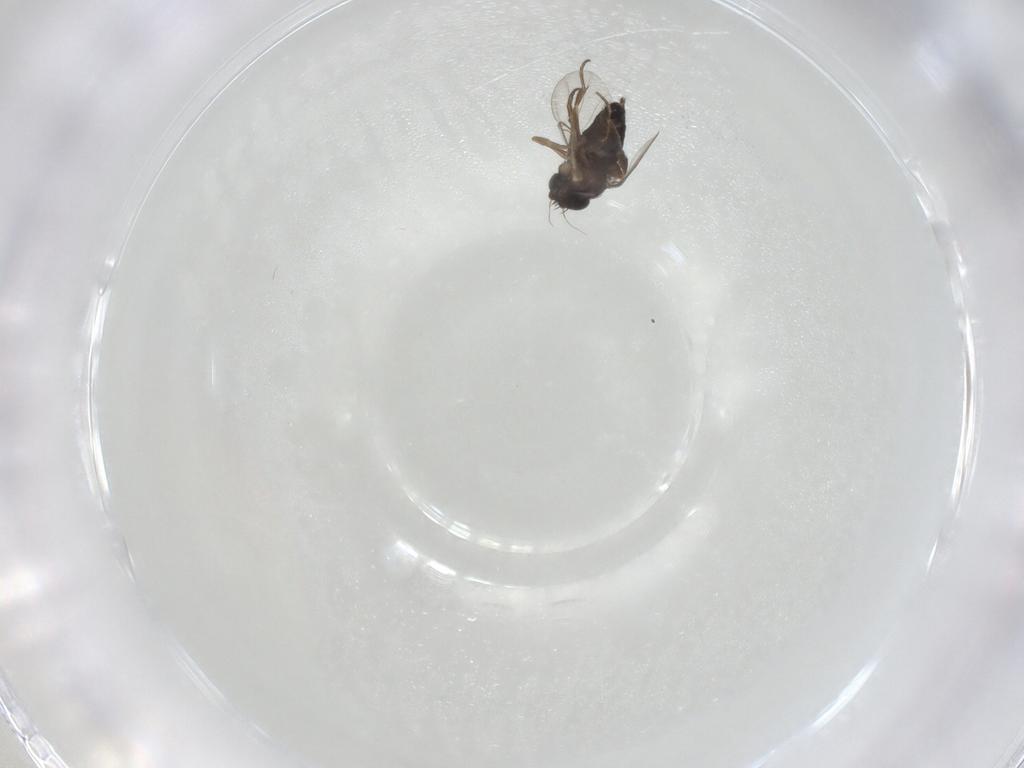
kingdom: Animalia
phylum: Arthropoda
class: Insecta
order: Diptera
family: Phoridae
